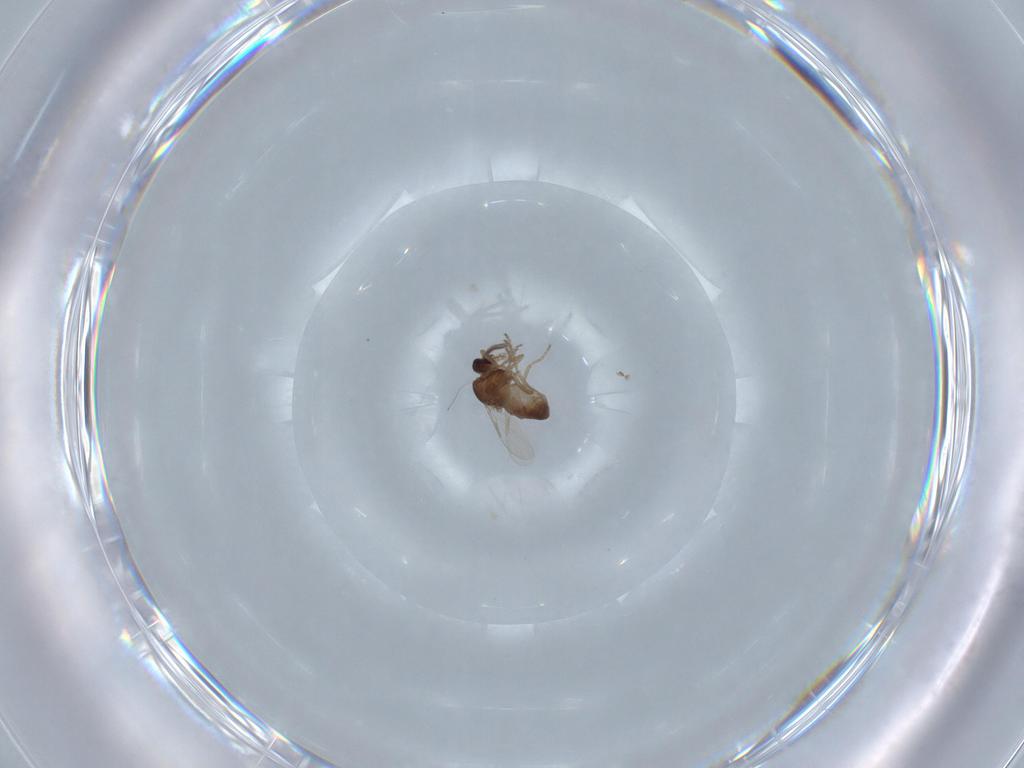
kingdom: Animalia
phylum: Arthropoda
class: Insecta
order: Diptera
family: Ceratopogonidae
